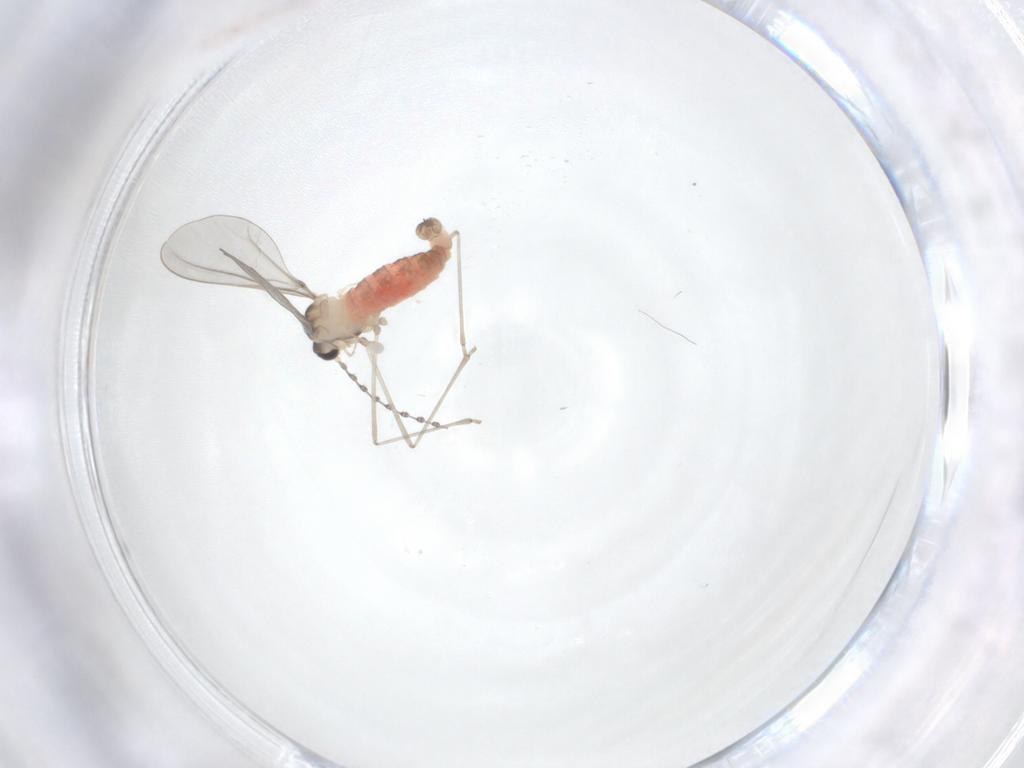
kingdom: Animalia
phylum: Arthropoda
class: Insecta
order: Diptera
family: Cecidomyiidae
